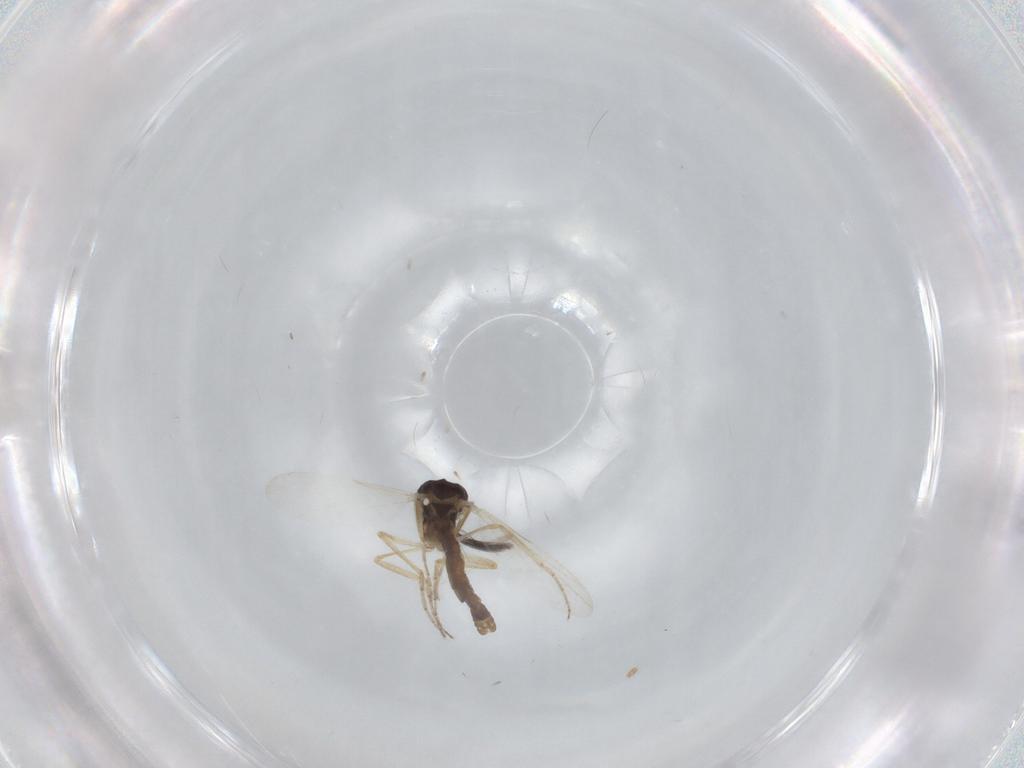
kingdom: Animalia
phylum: Arthropoda
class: Insecta
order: Diptera
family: Ceratopogonidae
